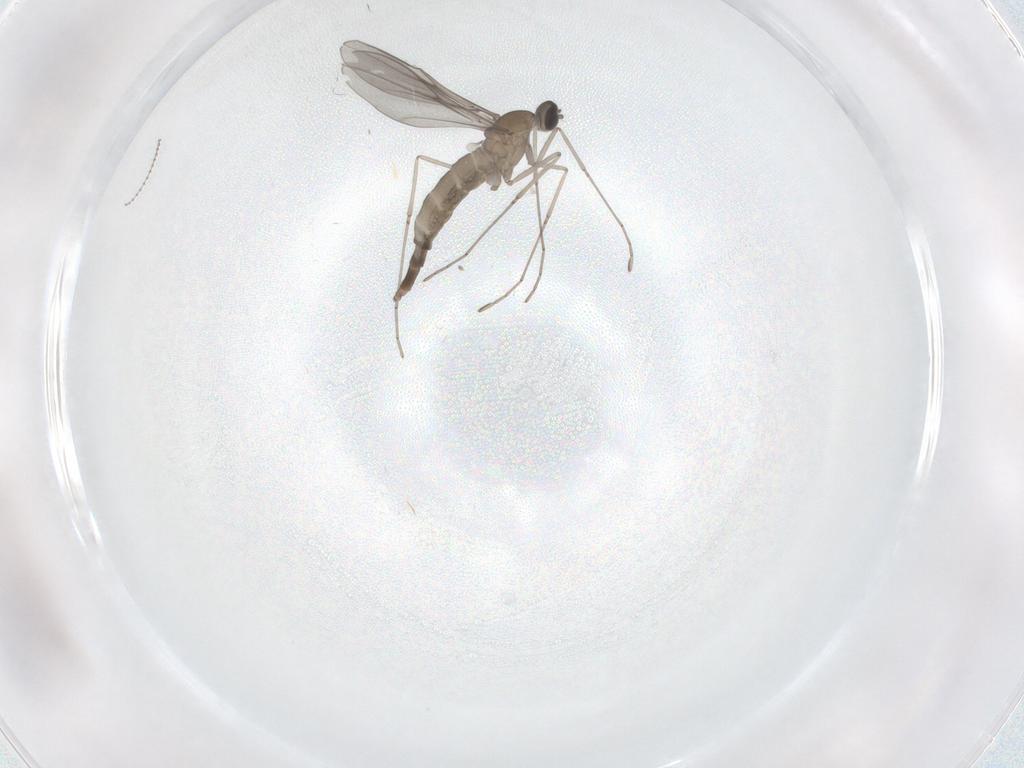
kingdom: Animalia
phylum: Arthropoda
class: Insecta
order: Diptera
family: Cecidomyiidae
